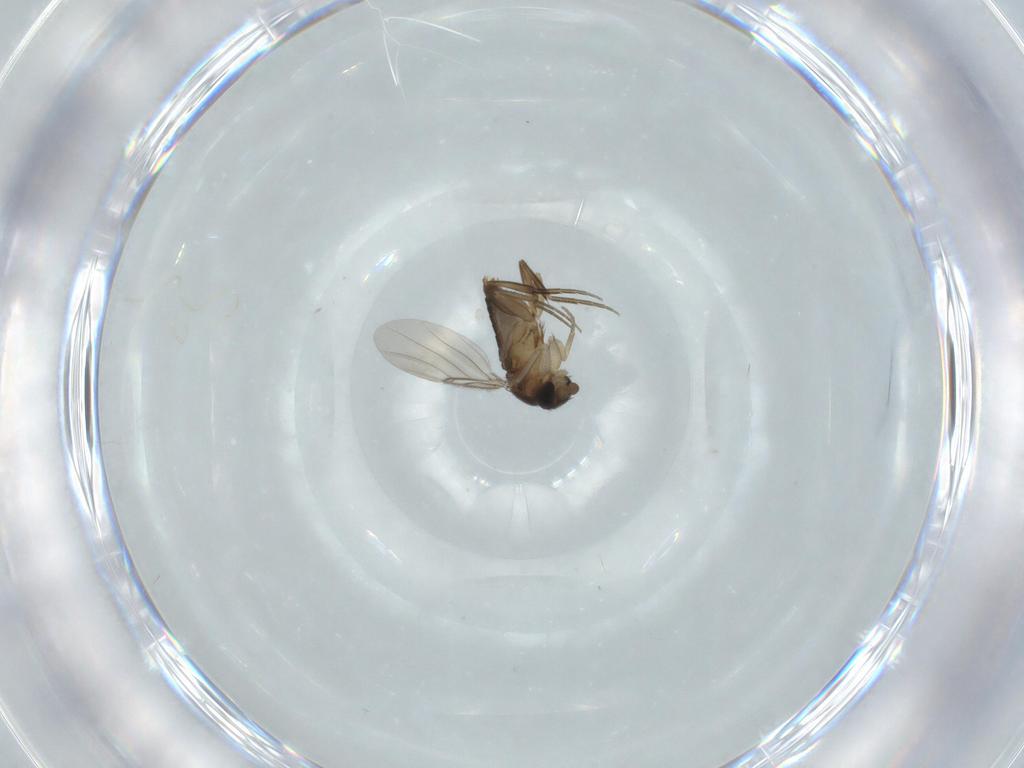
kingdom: Animalia
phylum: Arthropoda
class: Insecta
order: Diptera
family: Phoridae
